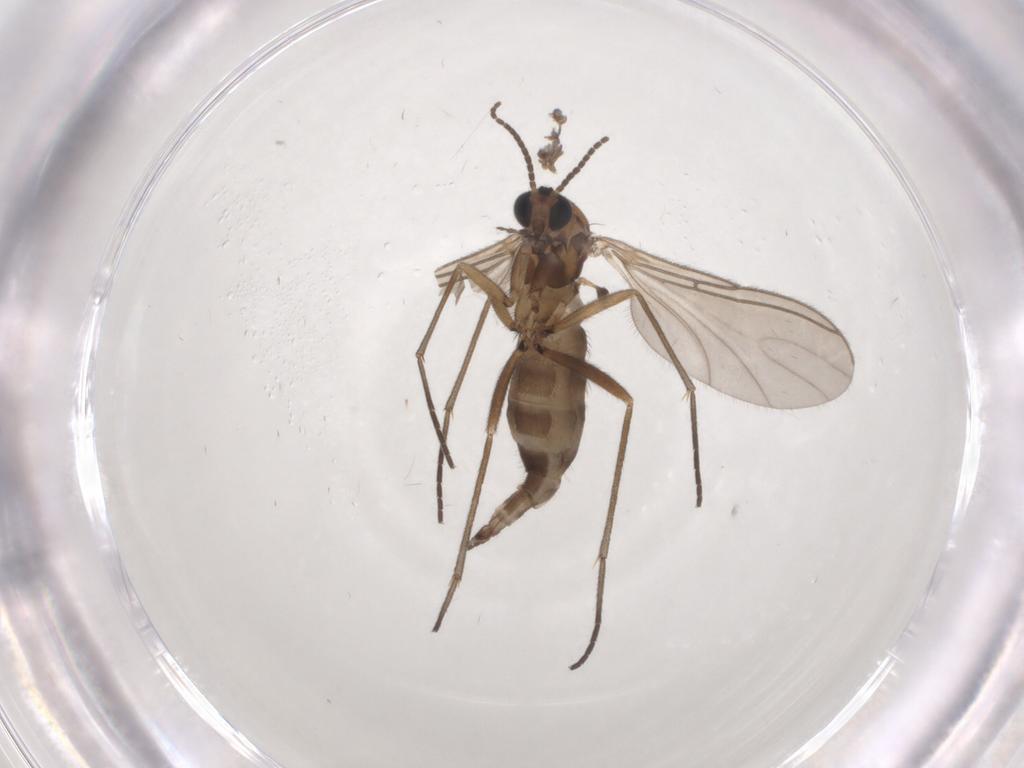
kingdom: Animalia
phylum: Arthropoda
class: Insecta
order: Diptera
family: Sciaridae
